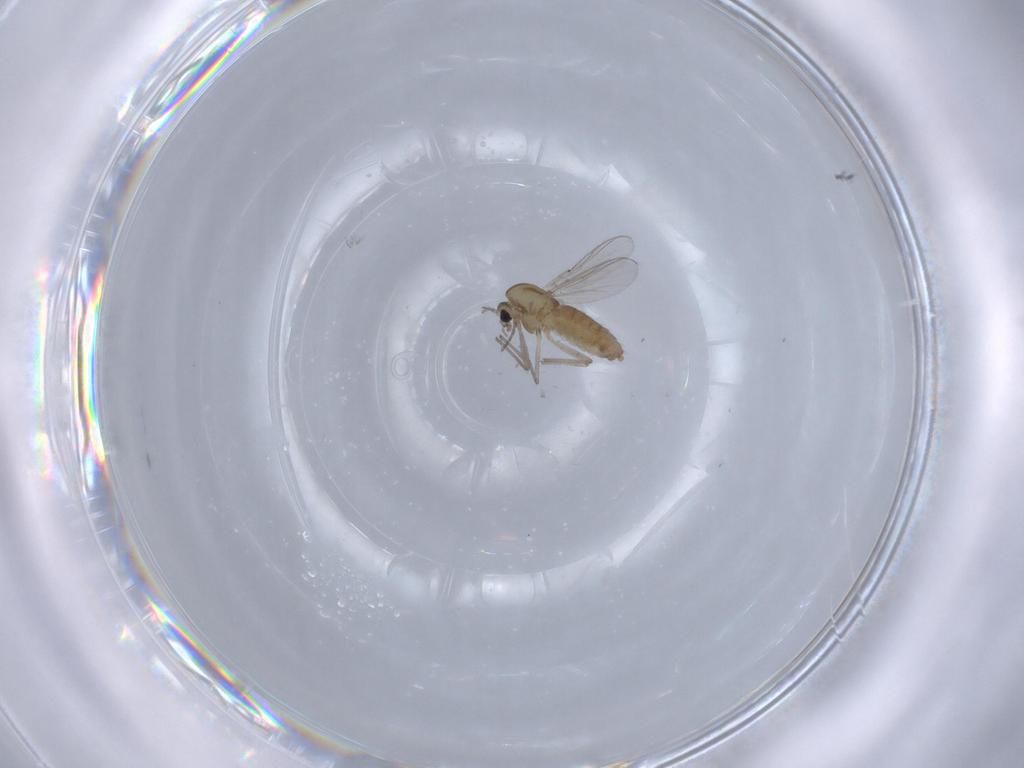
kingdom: Animalia
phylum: Arthropoda
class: Insecta
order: Diptera
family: Chironomidae
